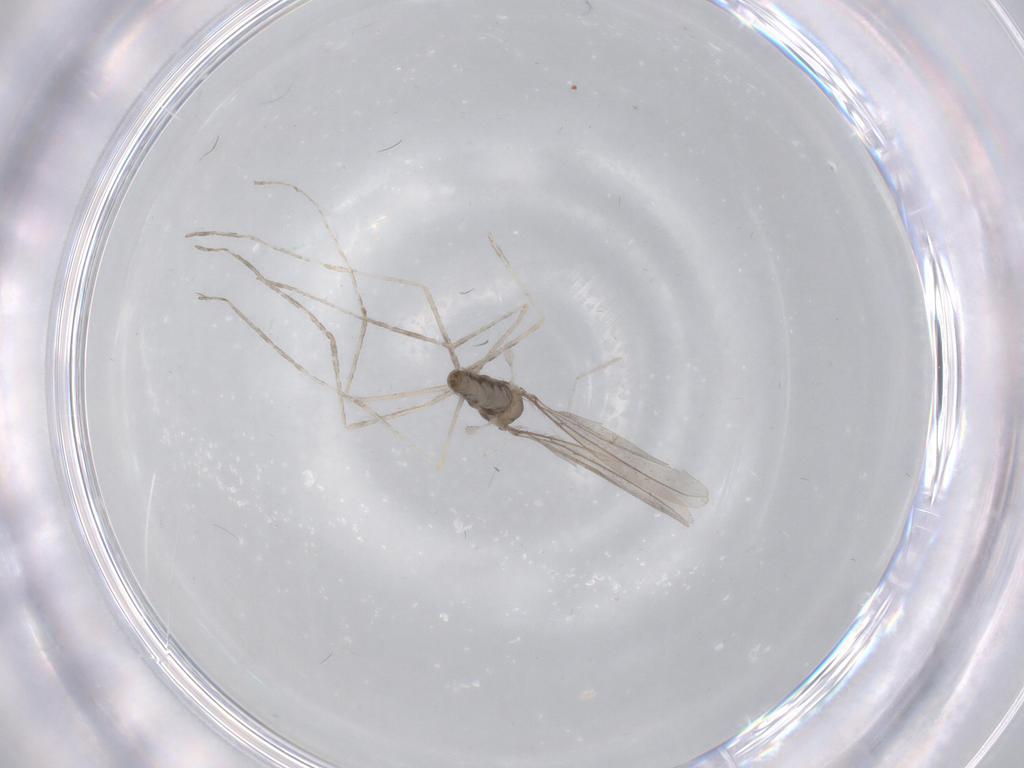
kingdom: Animalia
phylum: Arthropoda
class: Insecta
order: Diptera
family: Cecidomyiidae
